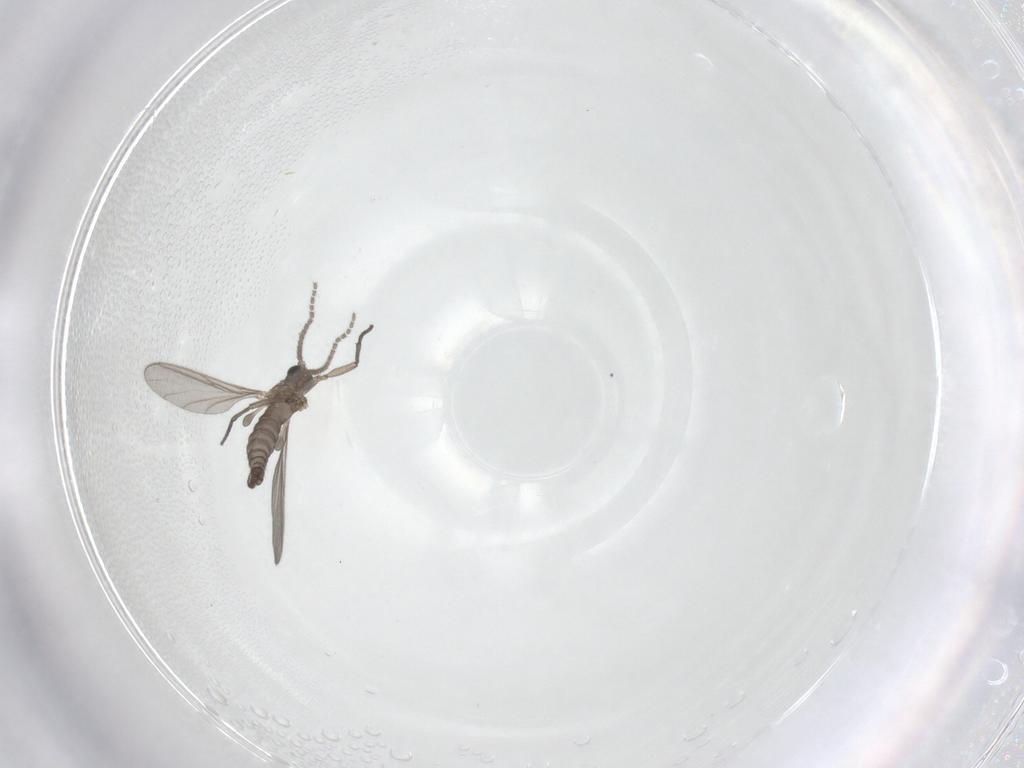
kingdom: Animalia
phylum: Arthropoda
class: Insecta
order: Diptera
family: Sciaridae
